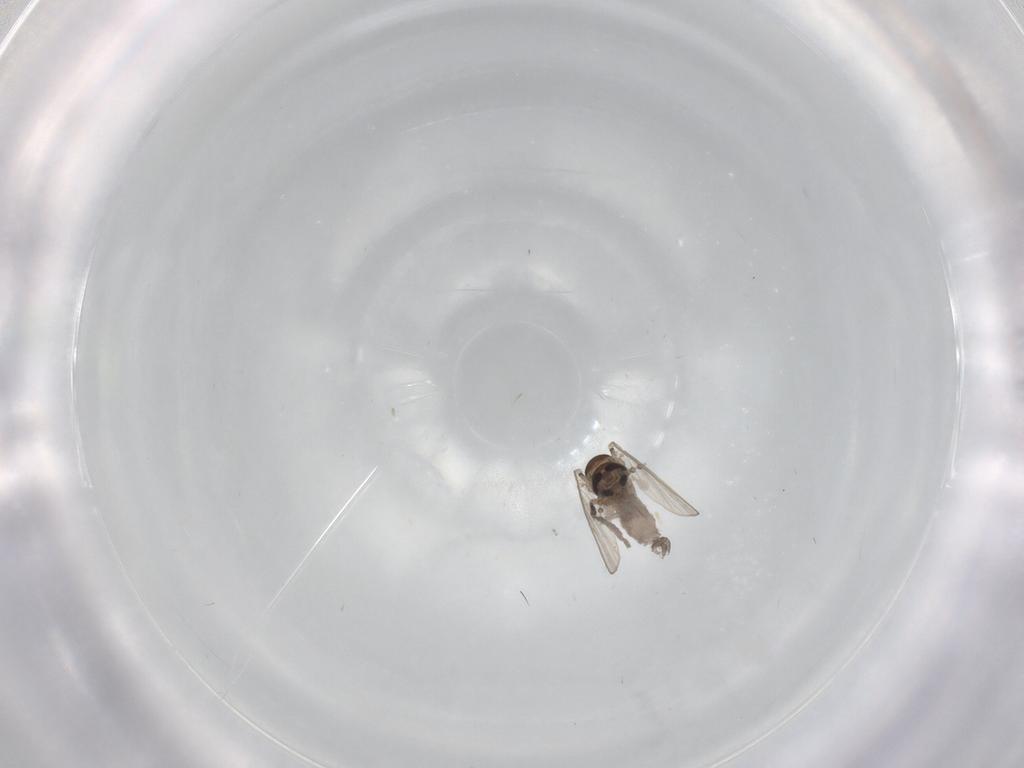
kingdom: Animalia
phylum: Arthropoda
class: Insecta
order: Diptera
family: Psychodidae
